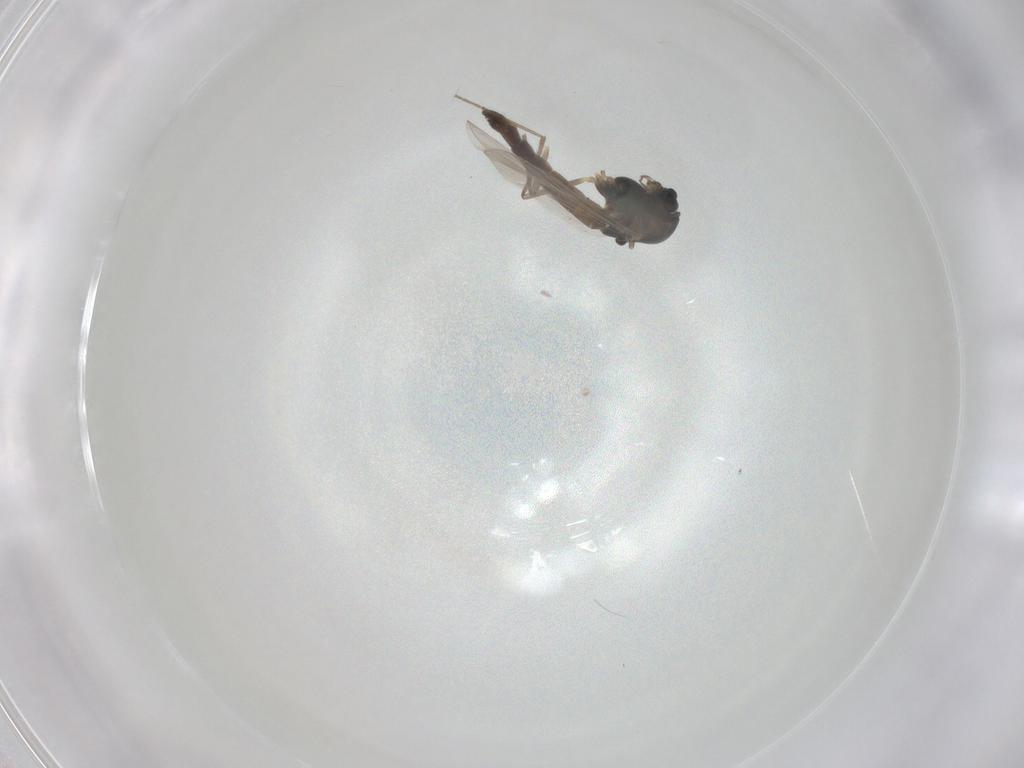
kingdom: Animalia
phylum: Arthropoda
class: Insecta
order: Diptera
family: Chironomidae
